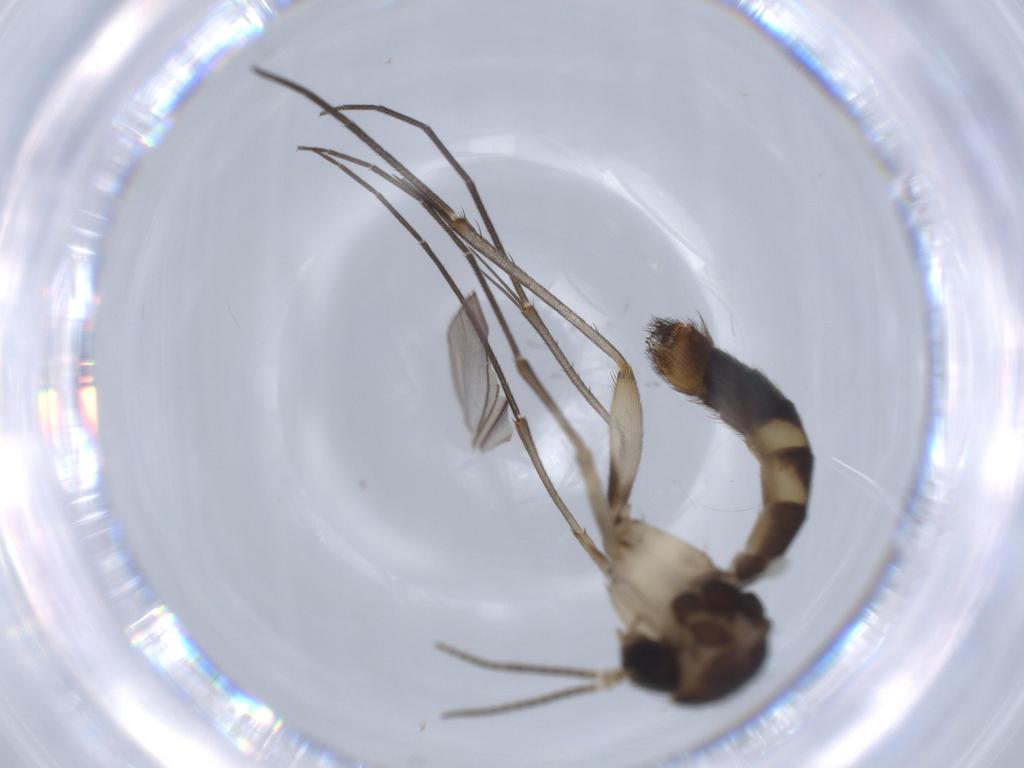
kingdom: Animalia
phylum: Arthropoda
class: Insecta
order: Diptera
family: Mycetophilidae
